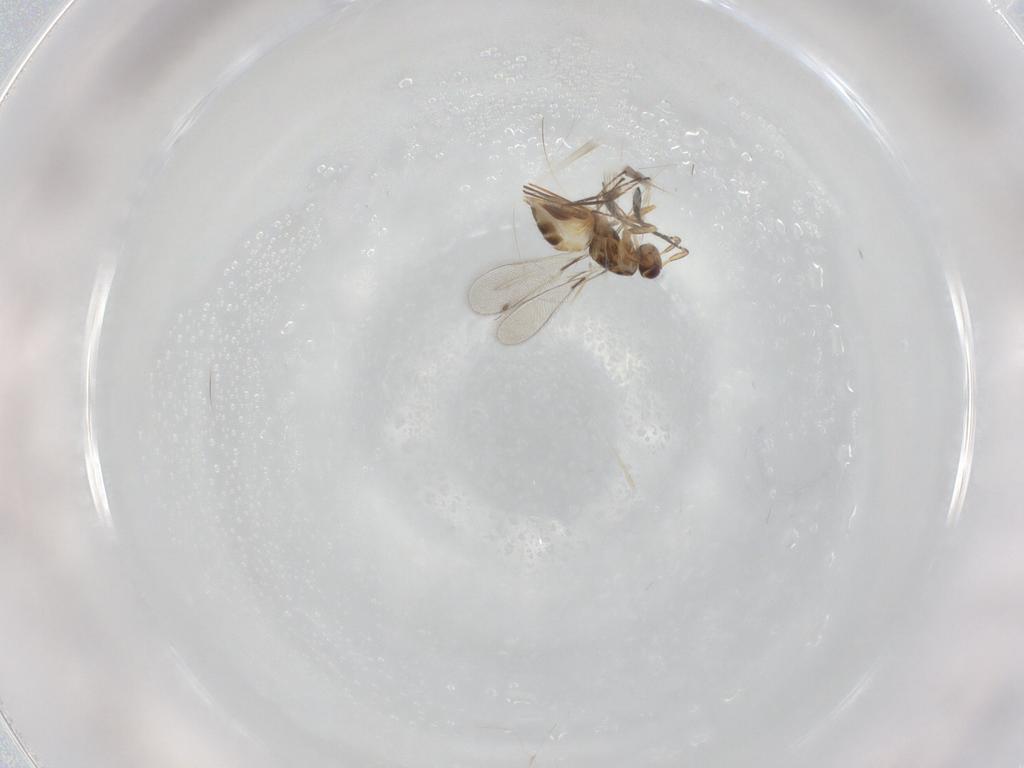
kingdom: Animalia
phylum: Arthropoda
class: Insecta
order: Hymenoptera
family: Mymaridae
